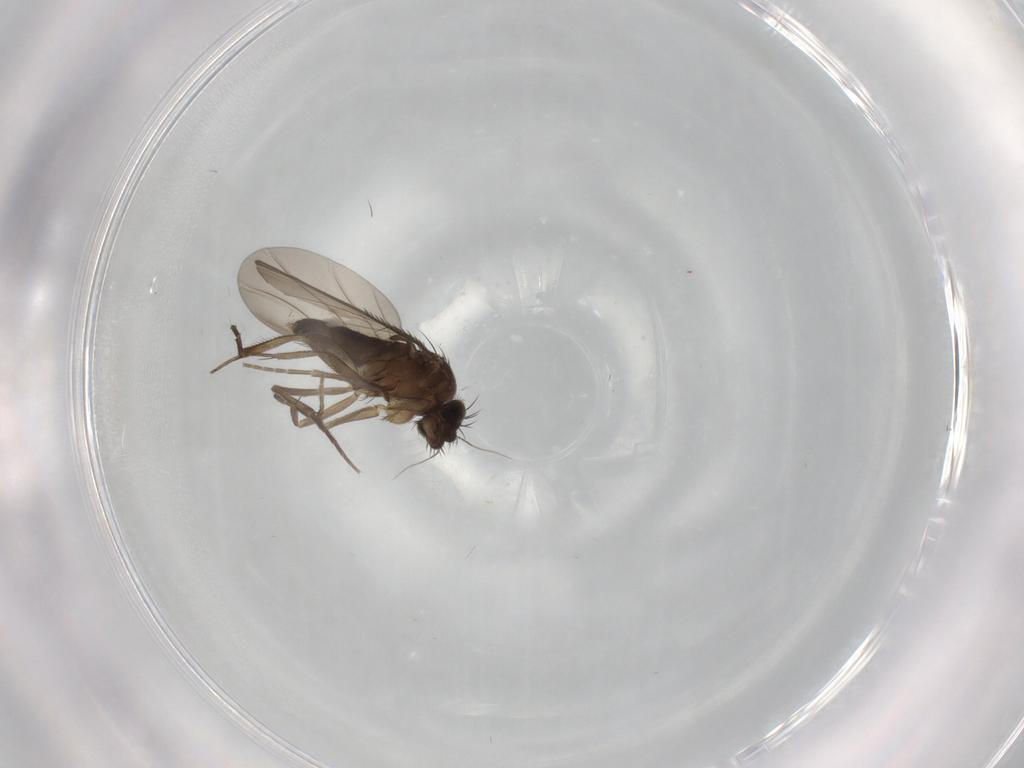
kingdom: Animalia
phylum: Arthropoda
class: Insecta
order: Diptera
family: Phoridae
